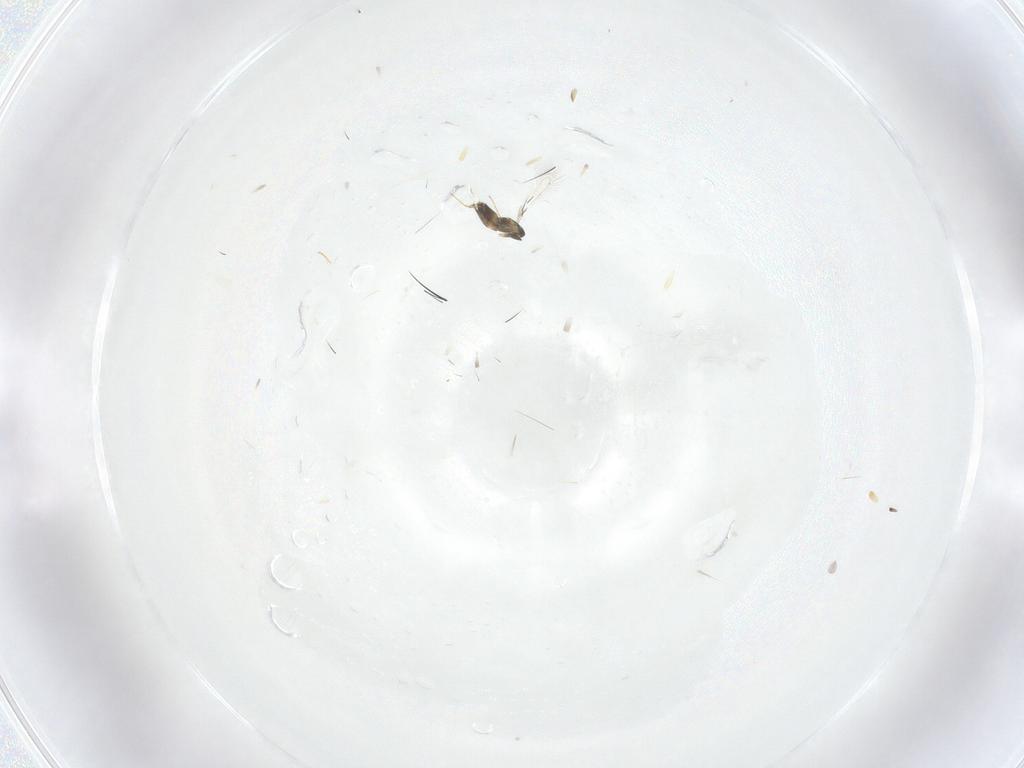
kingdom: Animalia
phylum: Arthropoda
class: Insecta
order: Hymenoptera
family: Mymaridae
